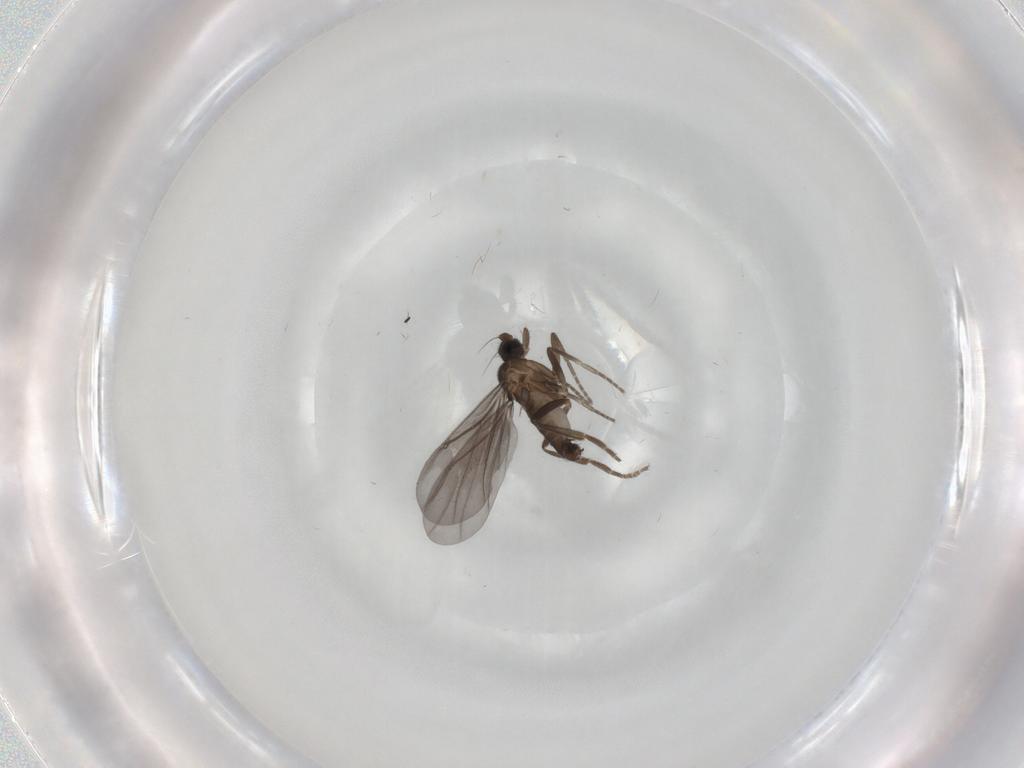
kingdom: Animalia
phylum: Arthropoda
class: Insecta
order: Diptera
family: Phoridae
